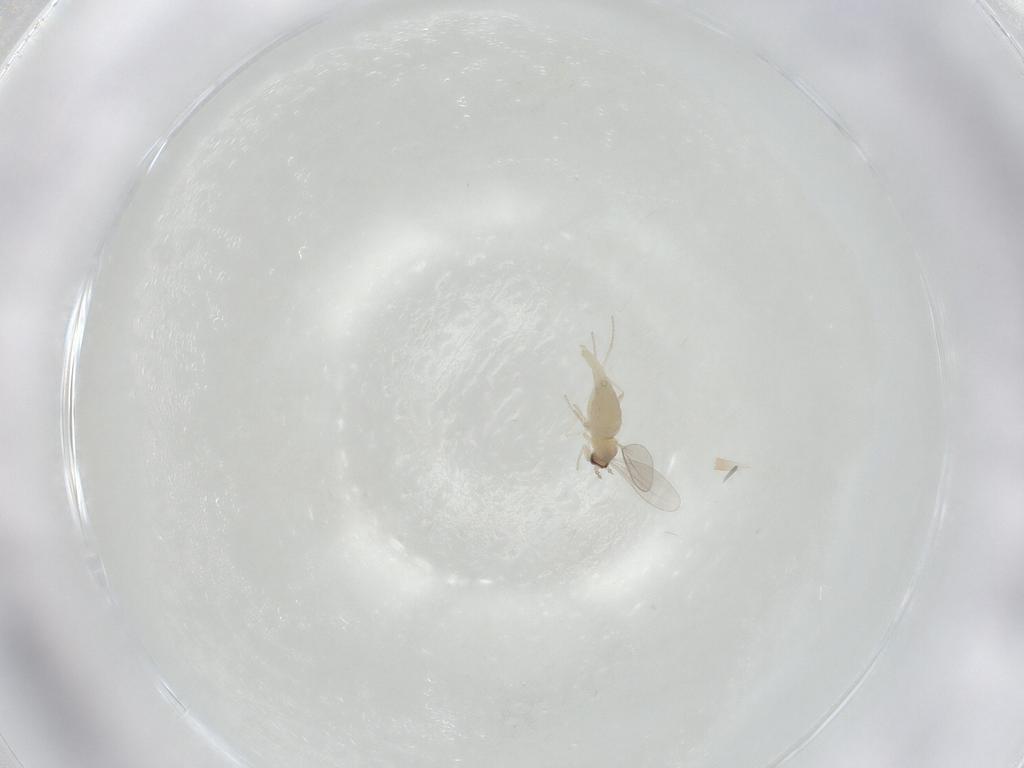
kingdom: Animalia
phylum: Arthropoda
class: Insecta
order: Diptera
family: Cecidomyiidae
